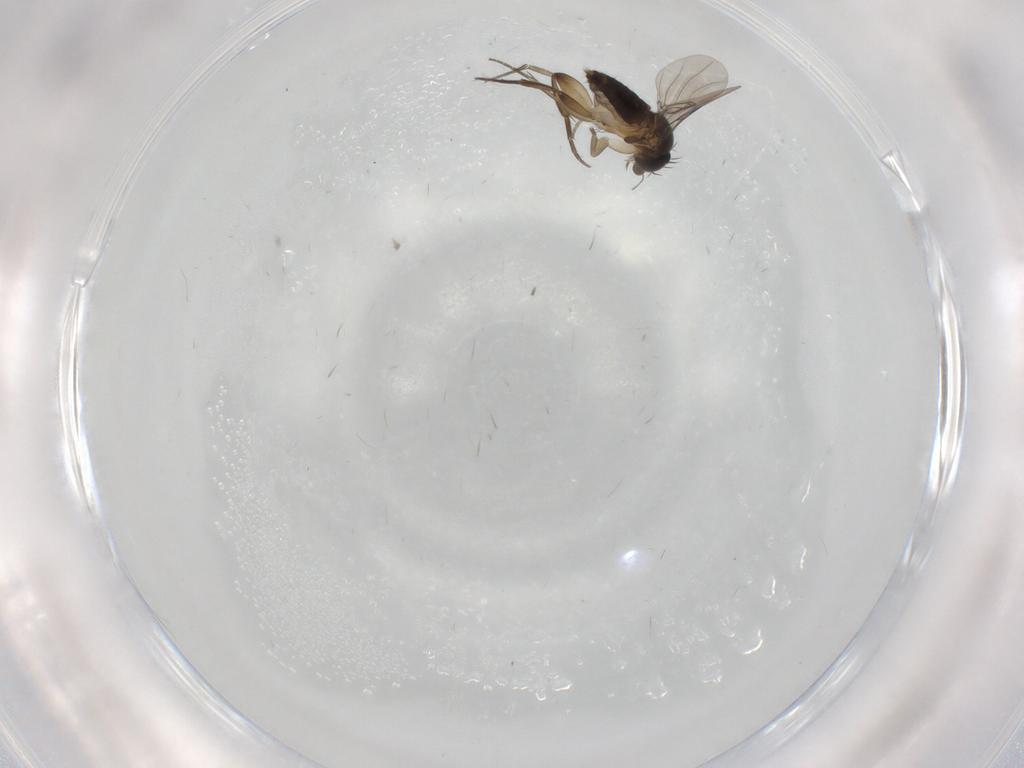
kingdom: Animalia
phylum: Arthropoda
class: Insecta
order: Diptera
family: Ceratopogonidae
